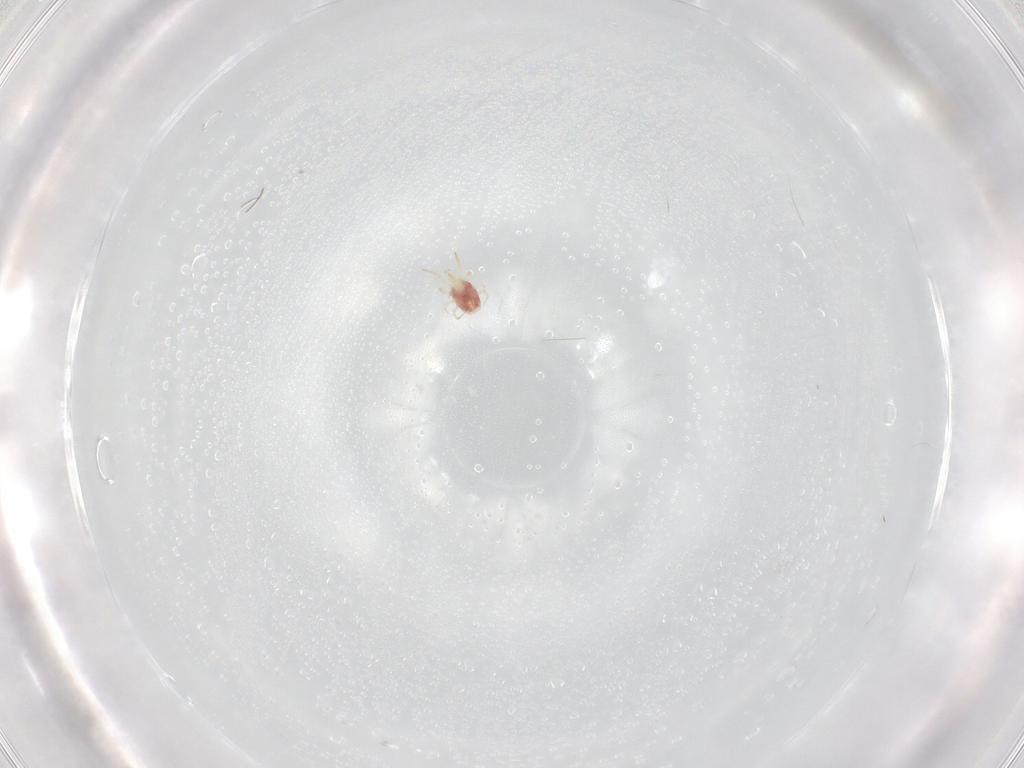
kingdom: Animalia
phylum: Arthropoda
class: Arachnida
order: Mesostigmata
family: Phytoseiidae
